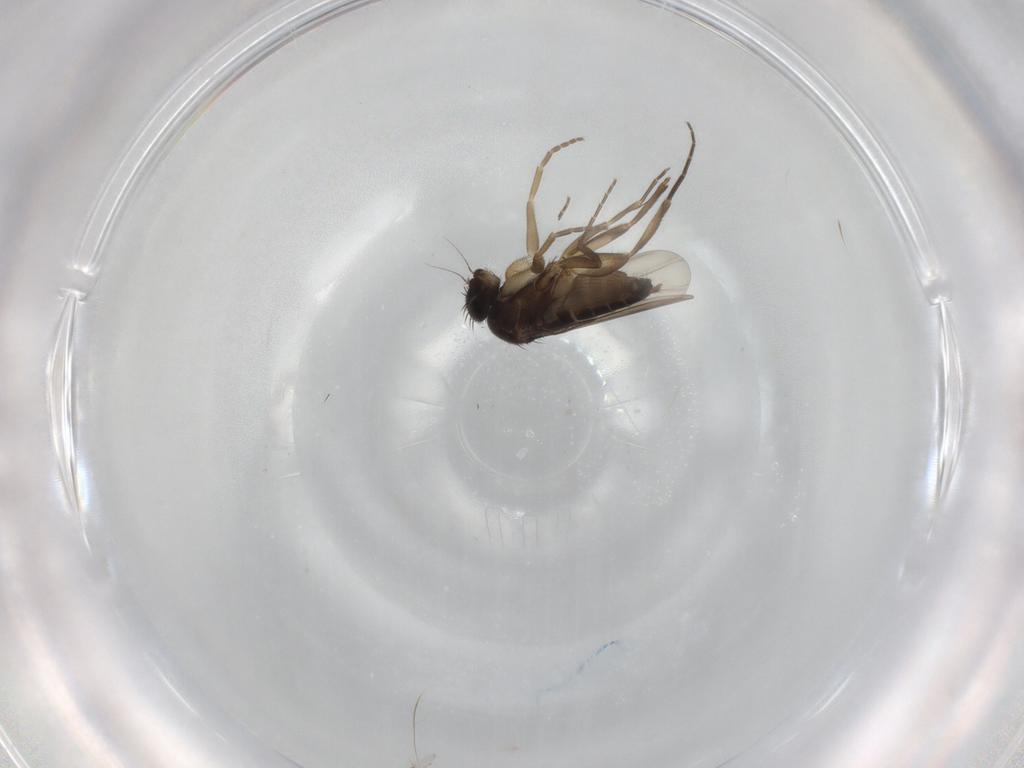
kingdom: Animalia
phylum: Arthropoda
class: Insecta
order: Diptera
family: Phoridae
